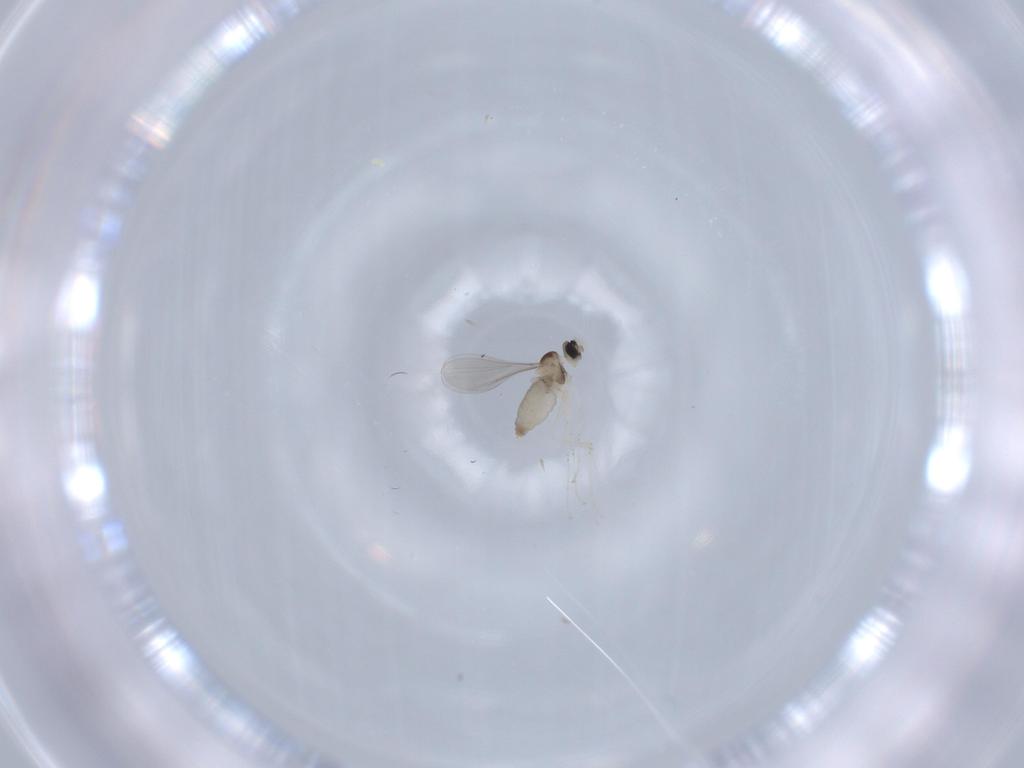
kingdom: Animalia
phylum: Arthropoda
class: Insecta
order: Diptera
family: Dolichopodidae
